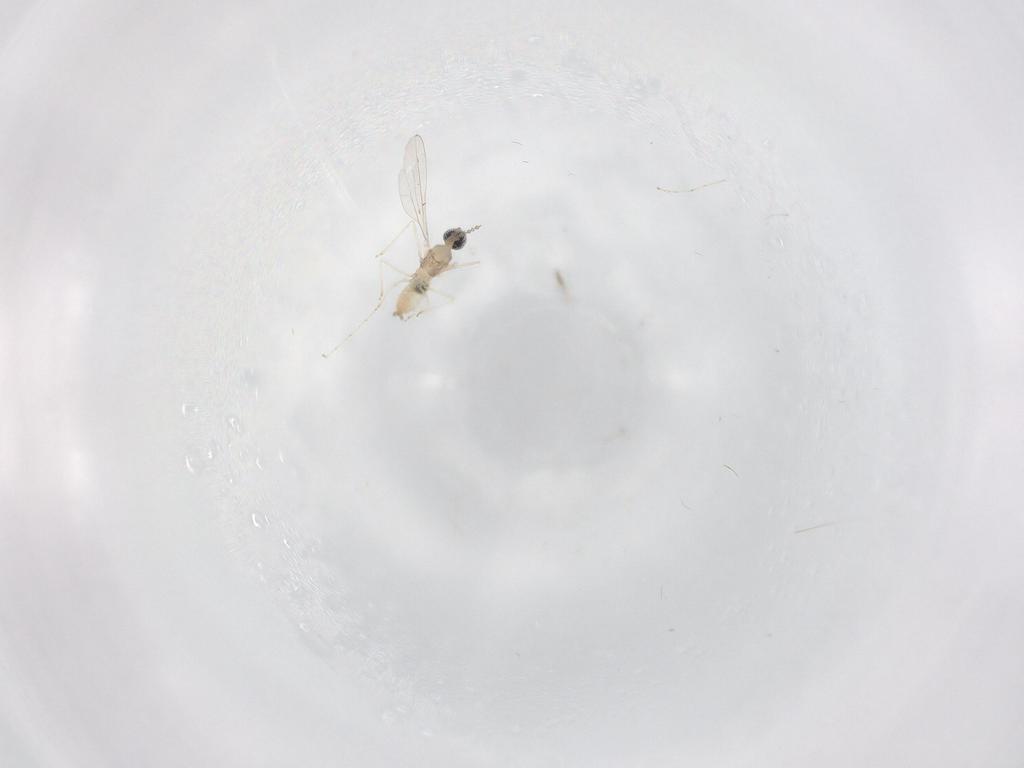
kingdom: Animalia
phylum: Arthropoda
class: Insecta
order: Diptera
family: Cecidomyiidae
